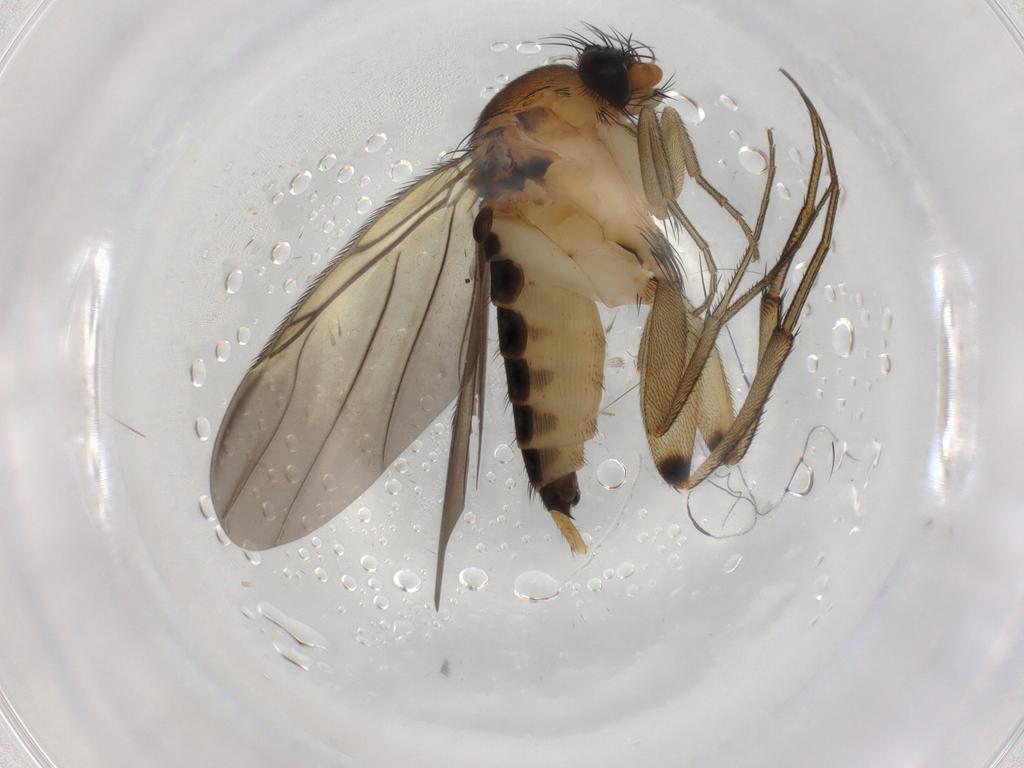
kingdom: Animalia
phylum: Arthropoda
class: Insecta
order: Diptera
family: Phoridae
